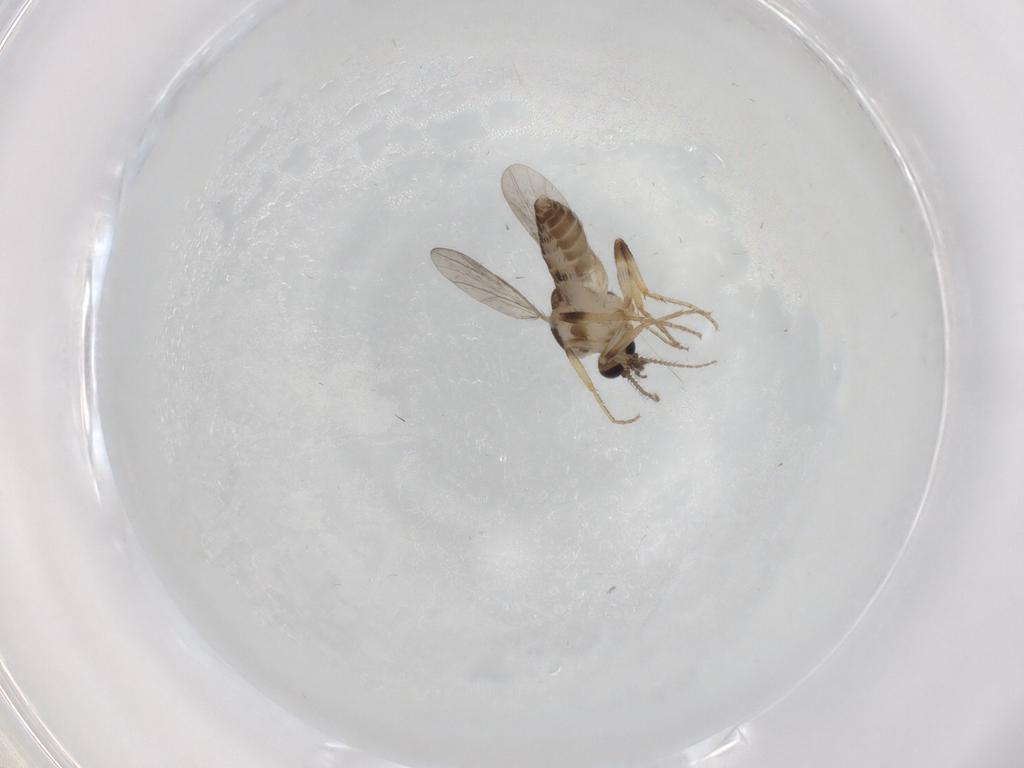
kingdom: Animalia
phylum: Arthropoda
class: Insecta
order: Diptera
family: Ceratopogonidae
